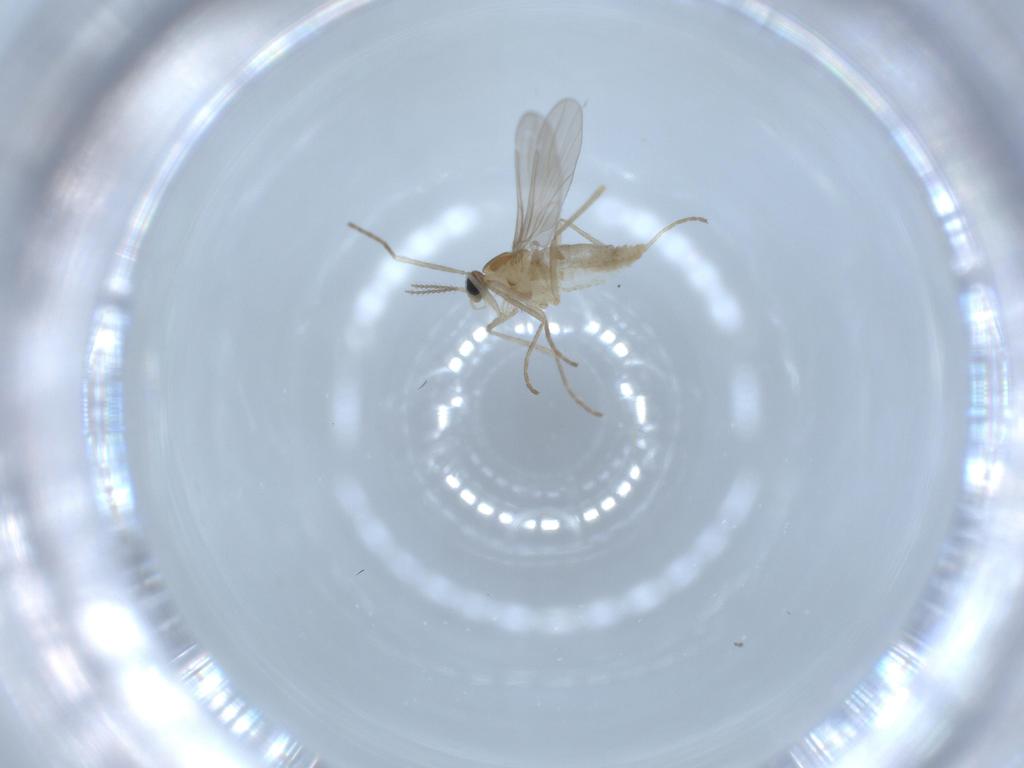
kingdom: Animalia
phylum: Arthropoda
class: Insecta
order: Diptera
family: Cecidomyiidae
